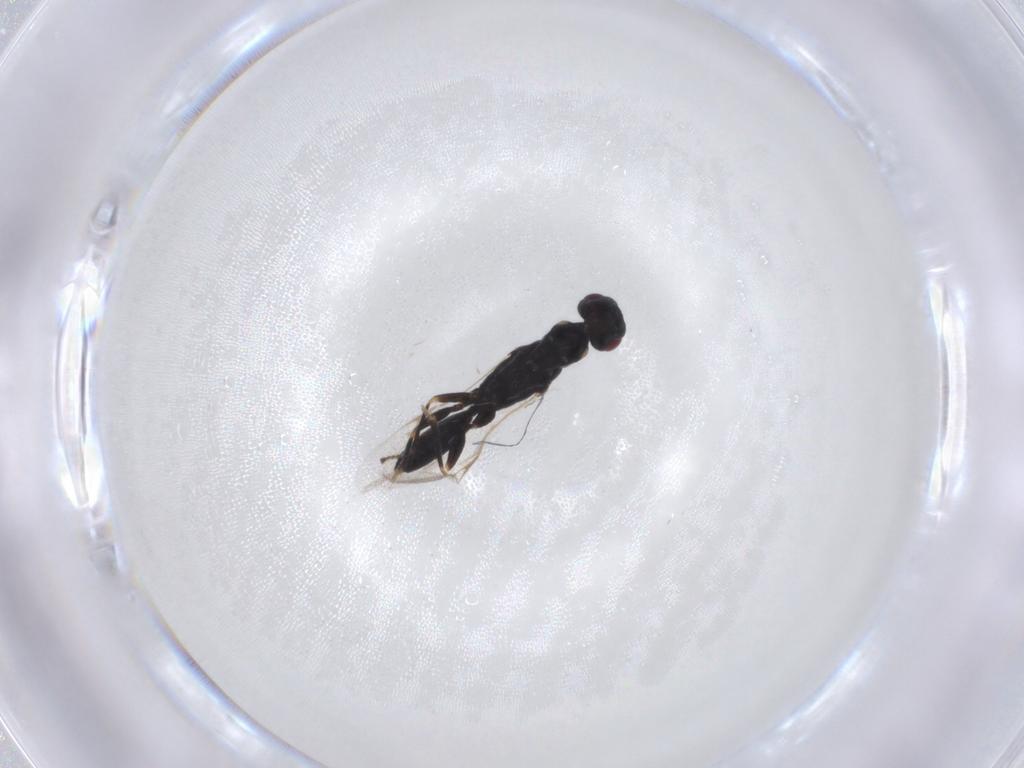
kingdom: Animalia
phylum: Arthropoda
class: Insecta
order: Hymenoptera
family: Eurytomidae
